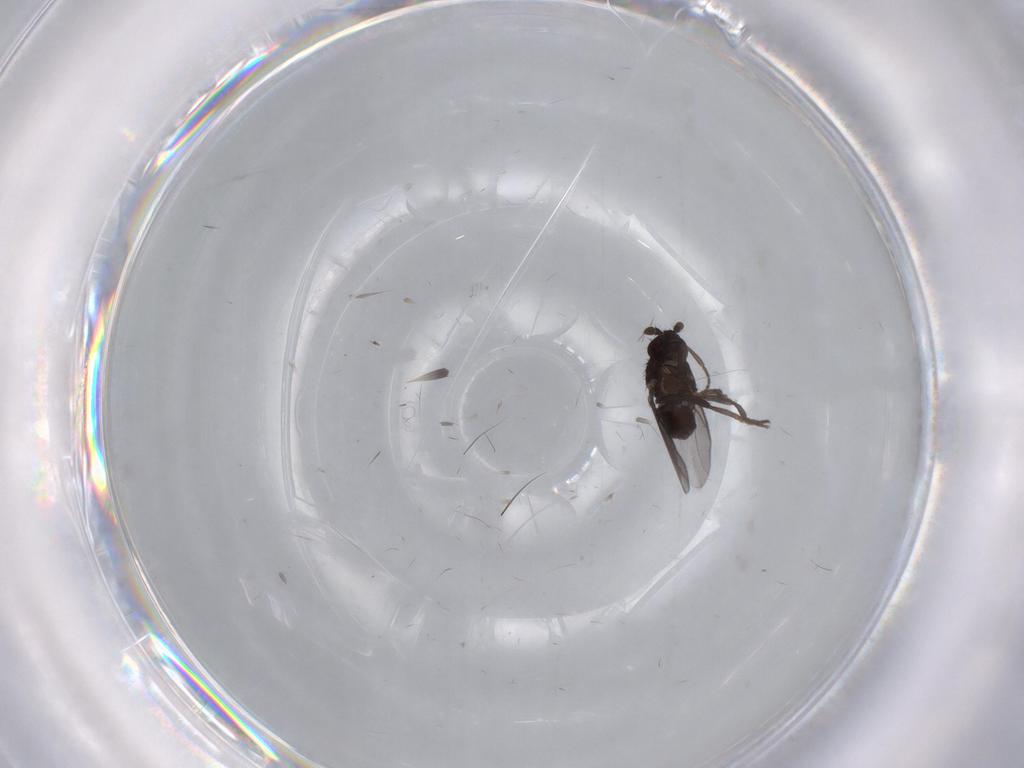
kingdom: Animalia
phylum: Arthropoda
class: Insecta
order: Diptera
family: Sphaeroceridae
